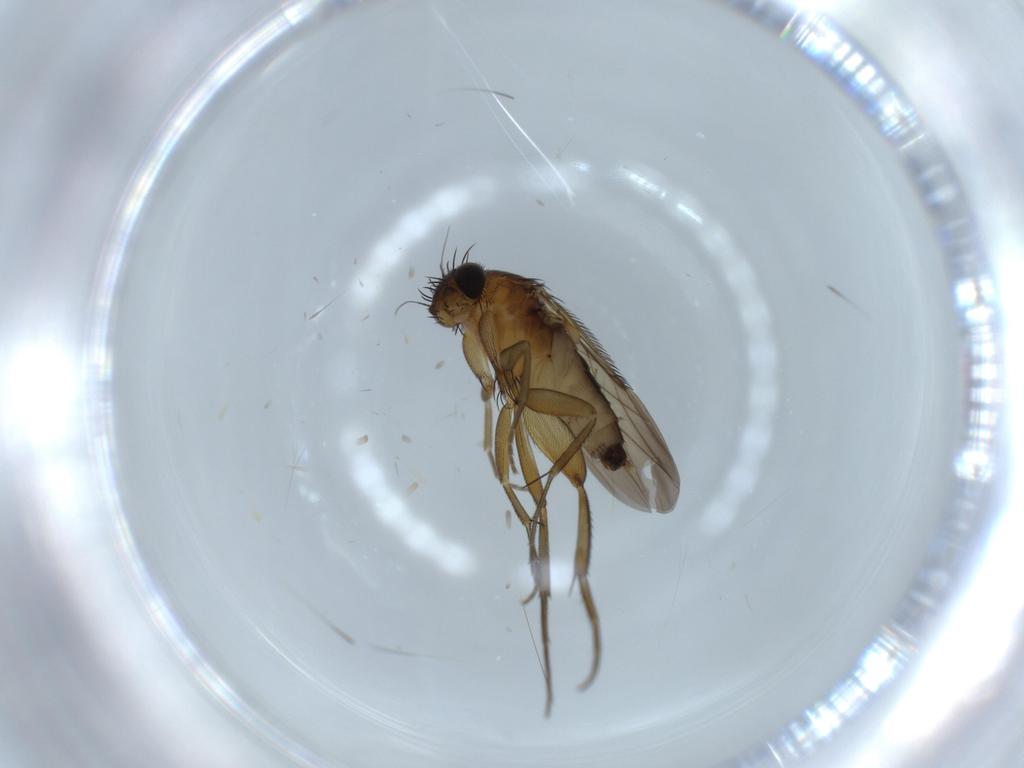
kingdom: Animalia
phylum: Arthropoda
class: Insecta
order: Diptera
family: Phoridae
